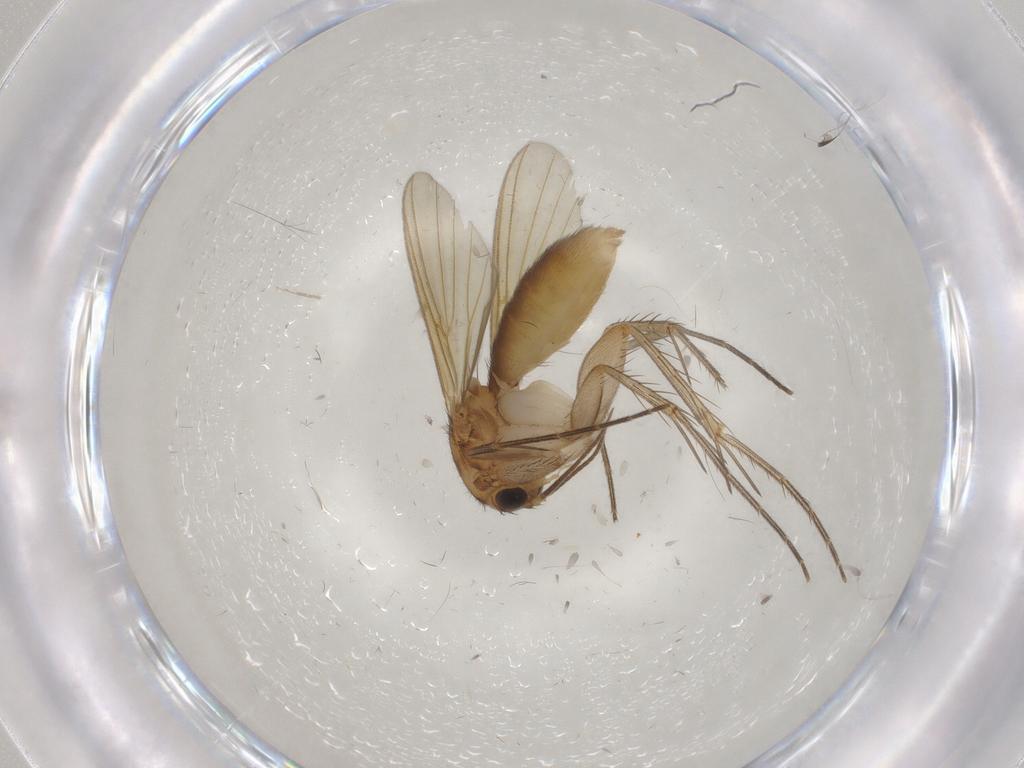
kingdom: Animalia
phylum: Arthropoda
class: Insecta
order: Diptera
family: Mycetophilidae
